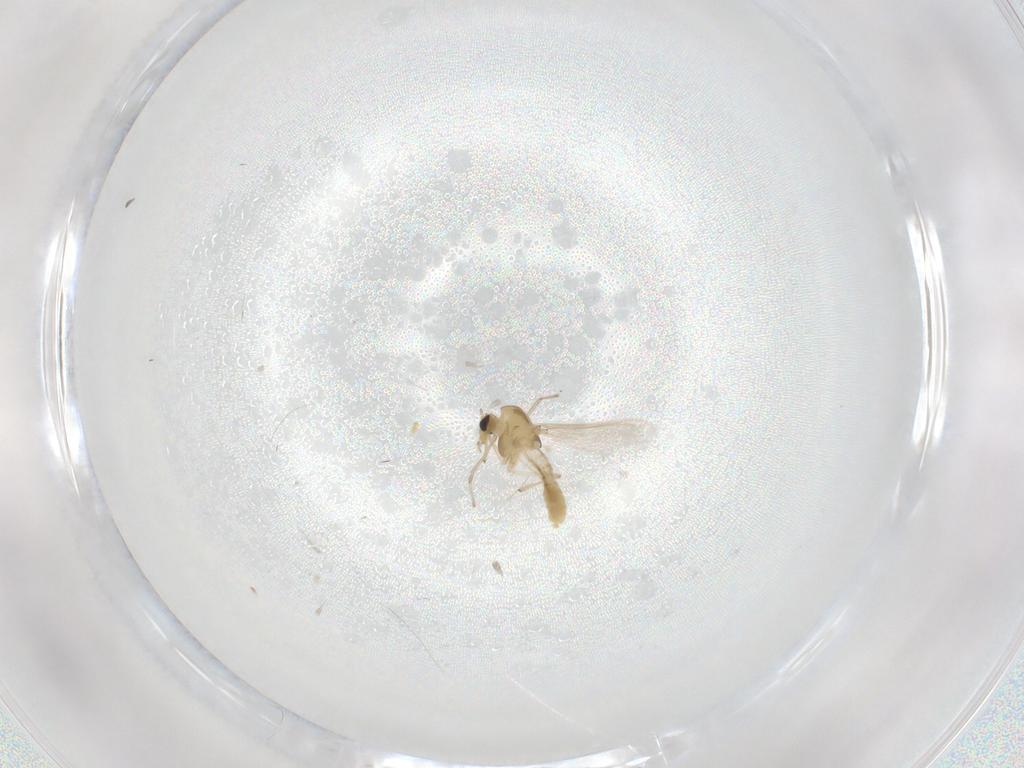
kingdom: Animalia
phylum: Arthropoda
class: Insecta
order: Diptera
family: Chironomidae
